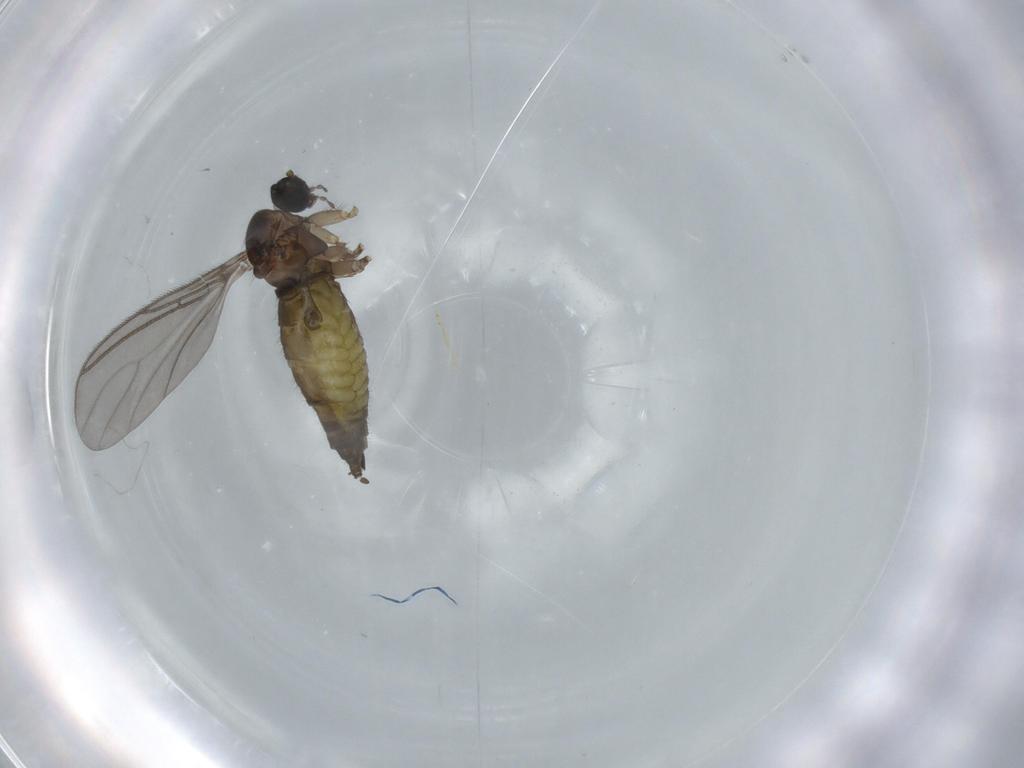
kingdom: Animalia
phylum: Arthropoda
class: Insecta
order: Diptera
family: Sciaridae
